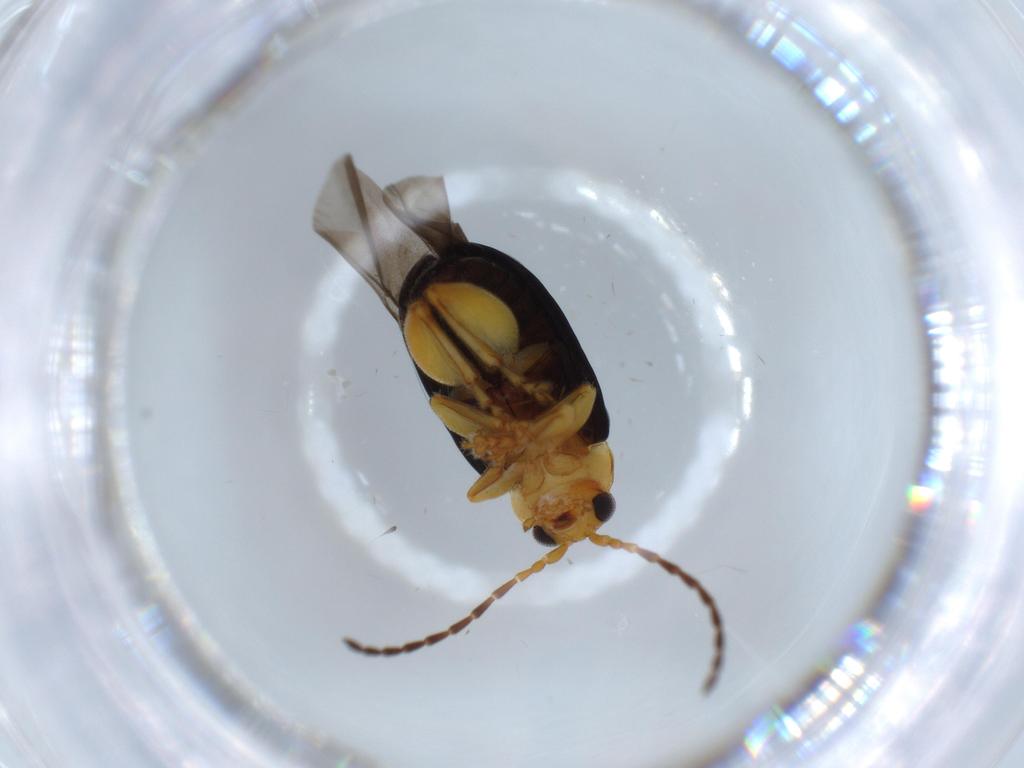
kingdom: Animalia
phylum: Arthropoda
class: Insecta
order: Coleoptera
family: Chrysomelidae
